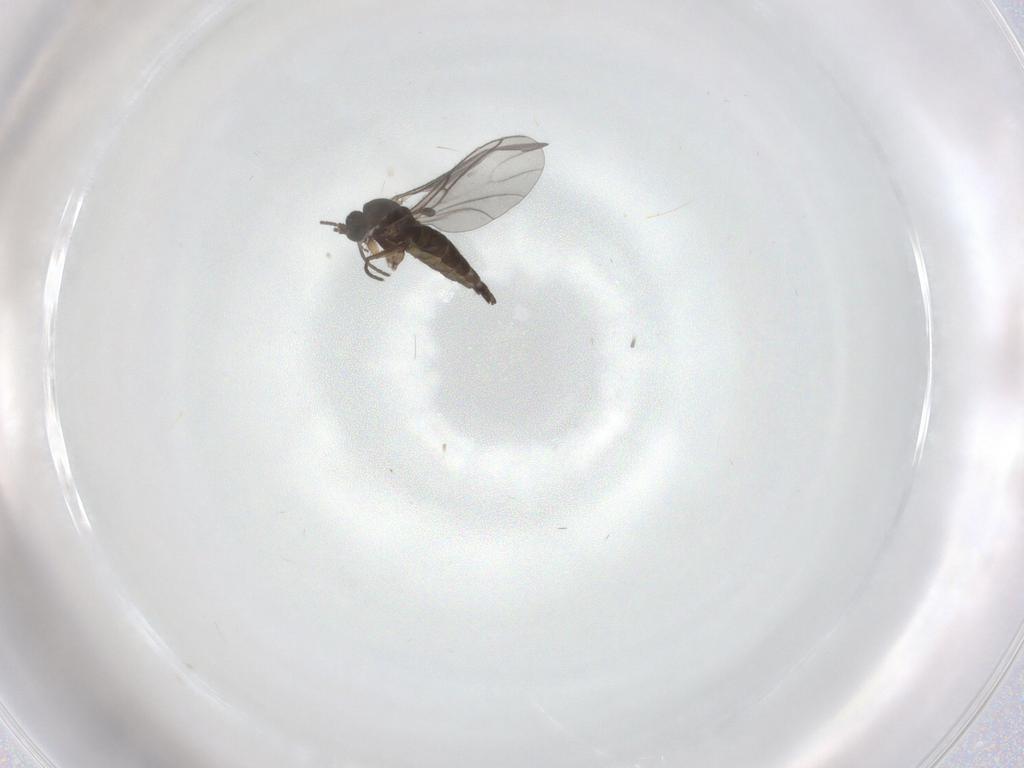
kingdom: Animalia
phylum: Arthropoda
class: Insecta
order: Diptera
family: Sciaridae
